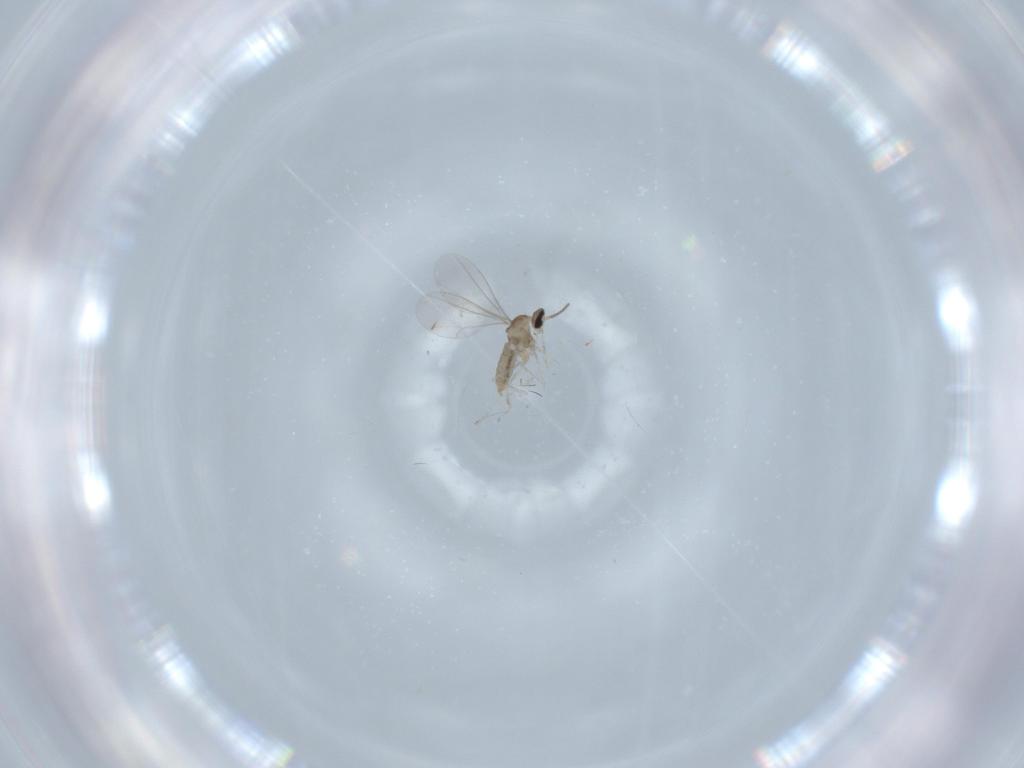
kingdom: Animalia
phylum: Arthropoda
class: Insecta
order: Diptera
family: Cecidomyiidae
